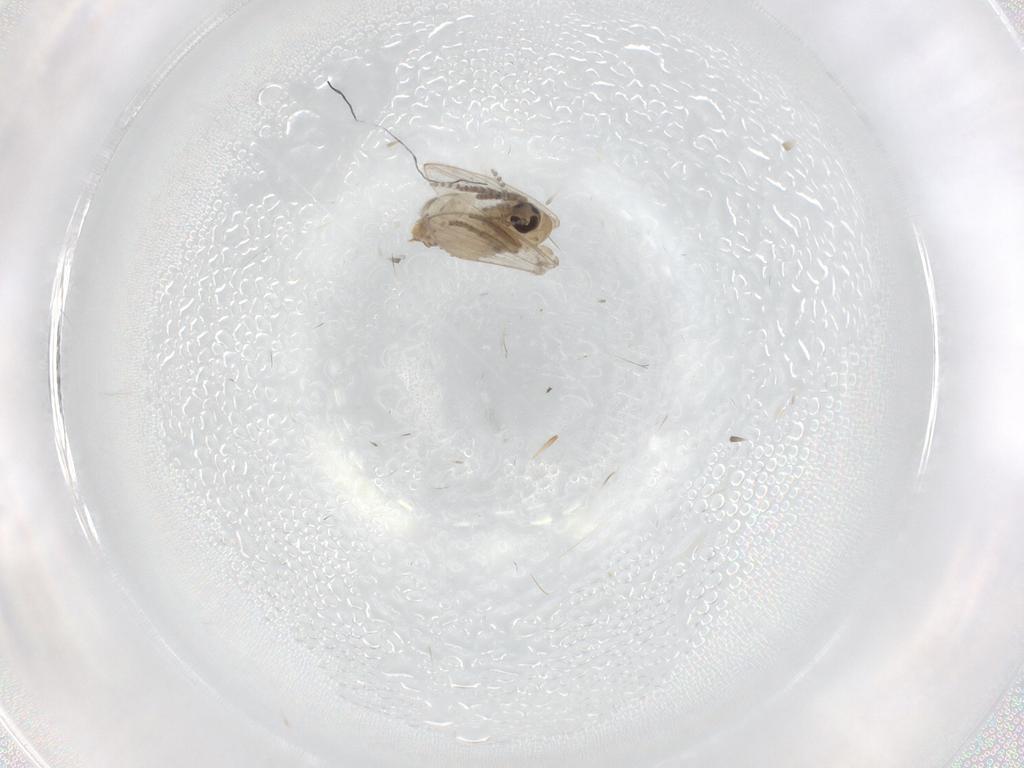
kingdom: Animalia
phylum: Arthropoda
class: Insecta
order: Diptera
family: Psychodidae
